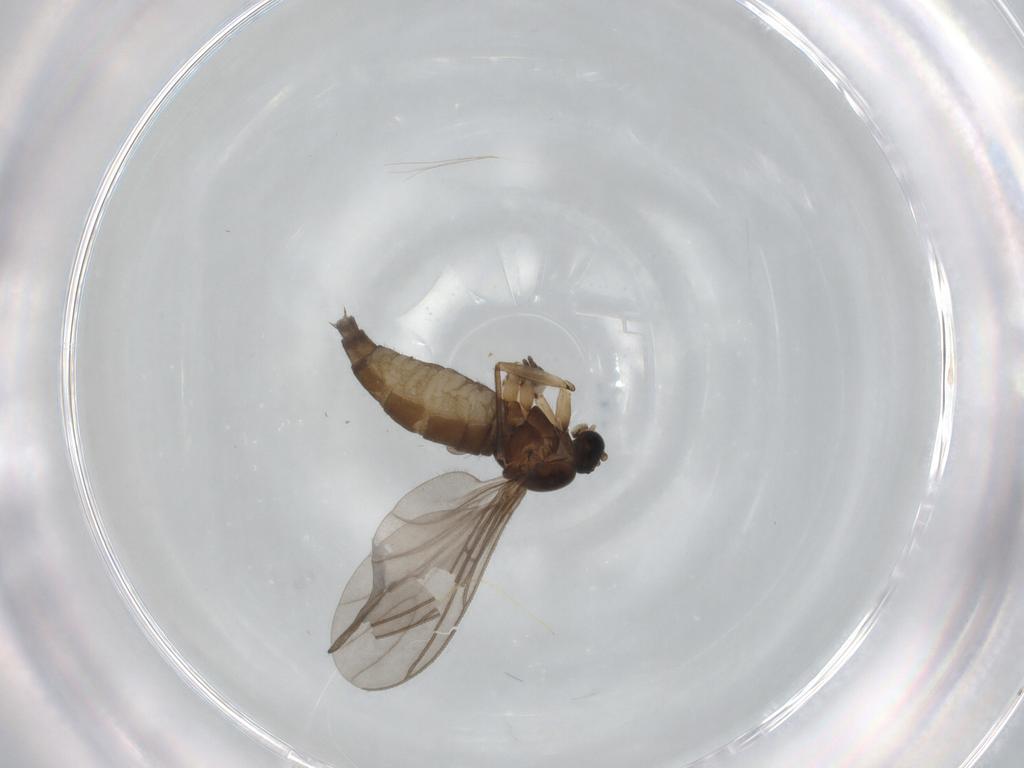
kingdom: Animalia
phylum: Arthropoda
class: Insecta
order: Diptera
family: Sciaridae
